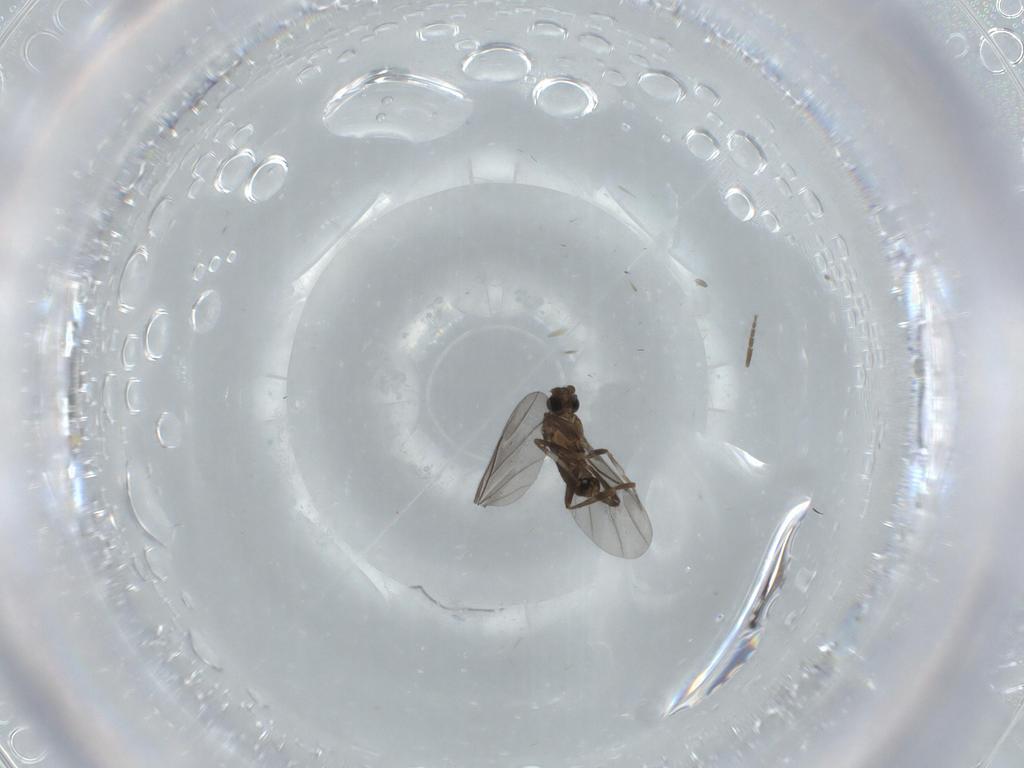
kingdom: Animalia
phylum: Arthropoda
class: Insecta
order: Diptera
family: Phoridae
